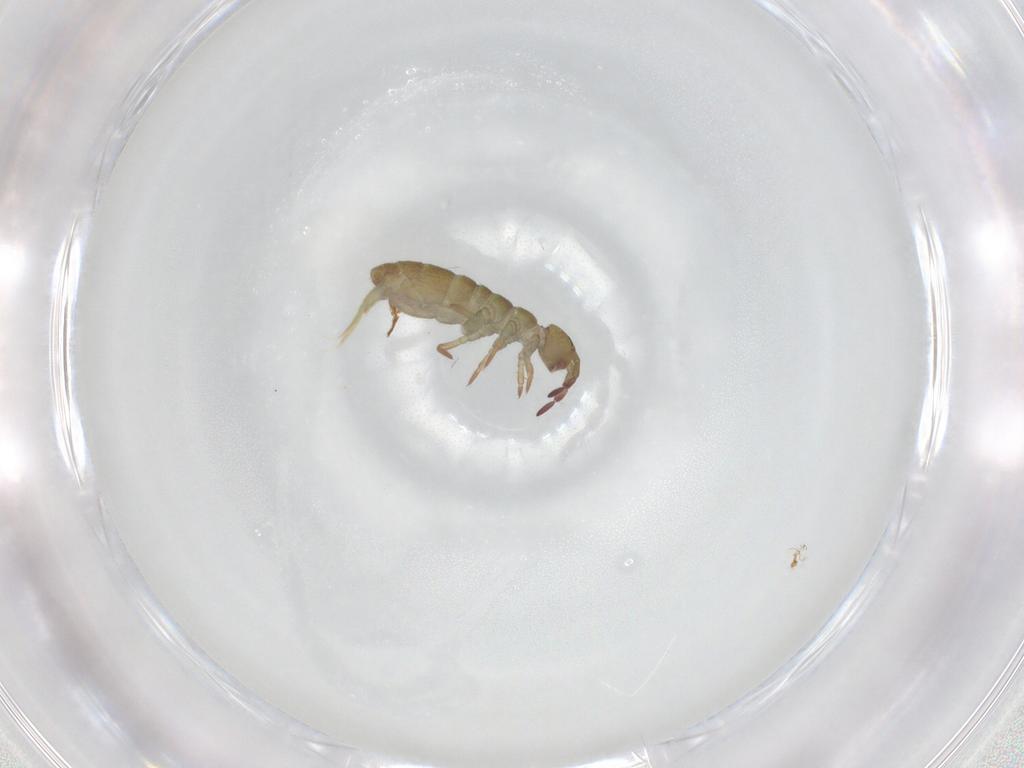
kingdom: Animalia
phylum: Arthropoda
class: Collembola
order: Entomobryomorpha
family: Isotomidae
